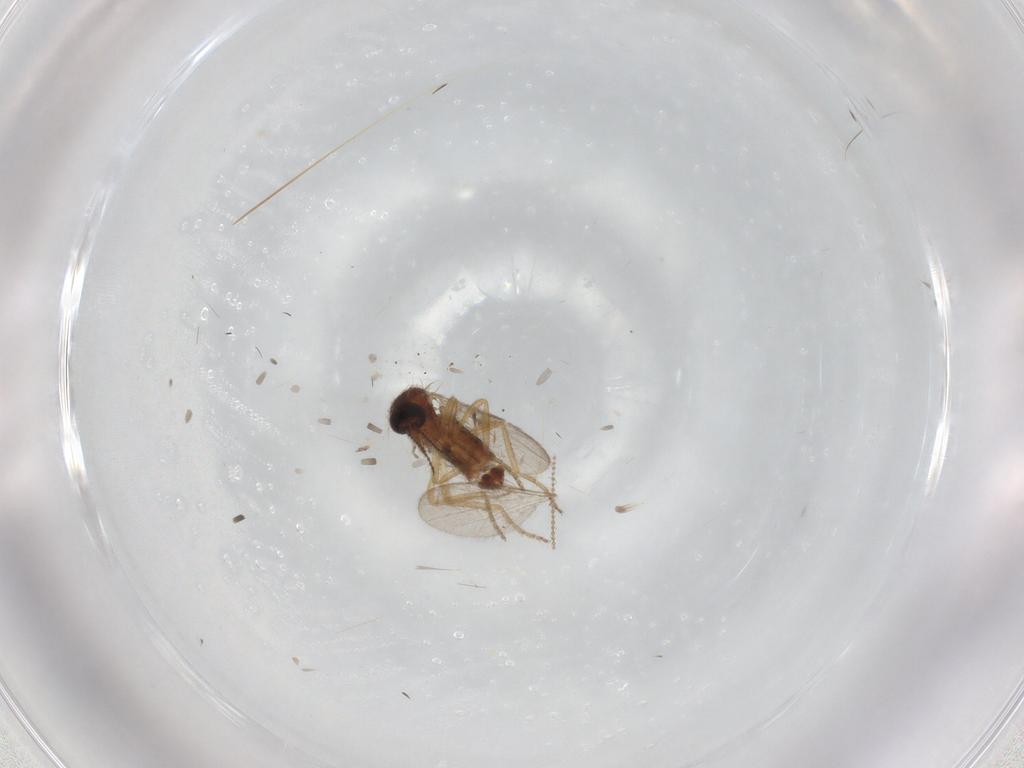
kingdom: Animalia
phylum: Arthropoda
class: Insecta
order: Diptera
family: Ceratopogonidae
